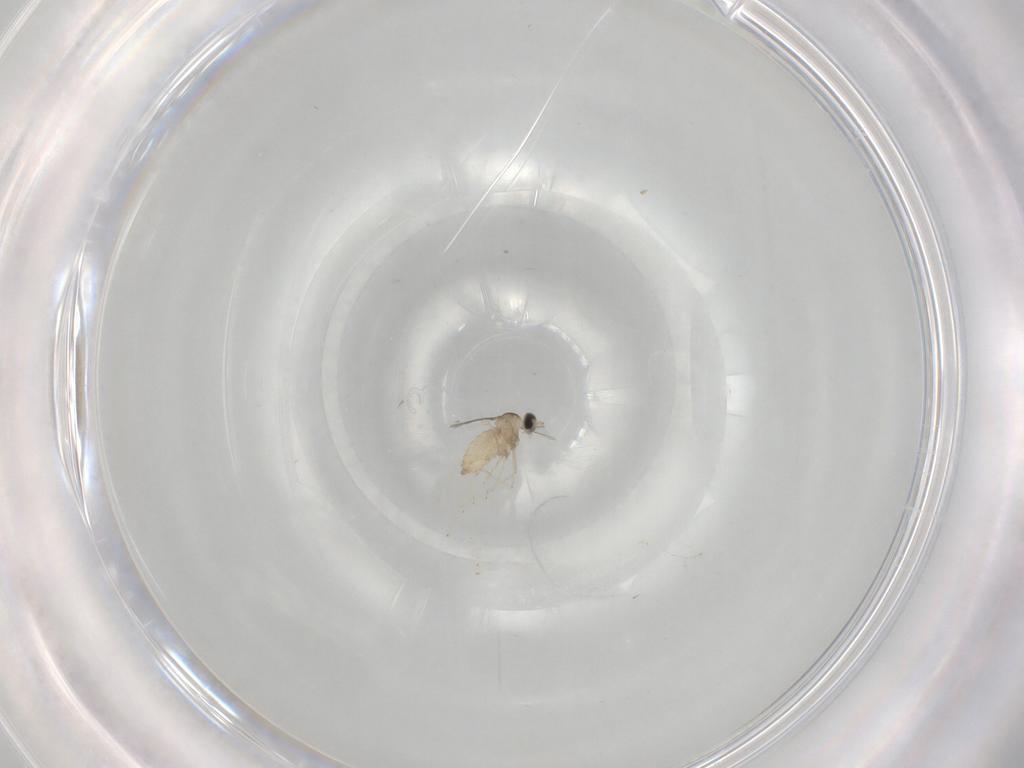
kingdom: Animalia
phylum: Arthropoda
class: Insecta
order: Diptera
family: Cecidomyiidae
